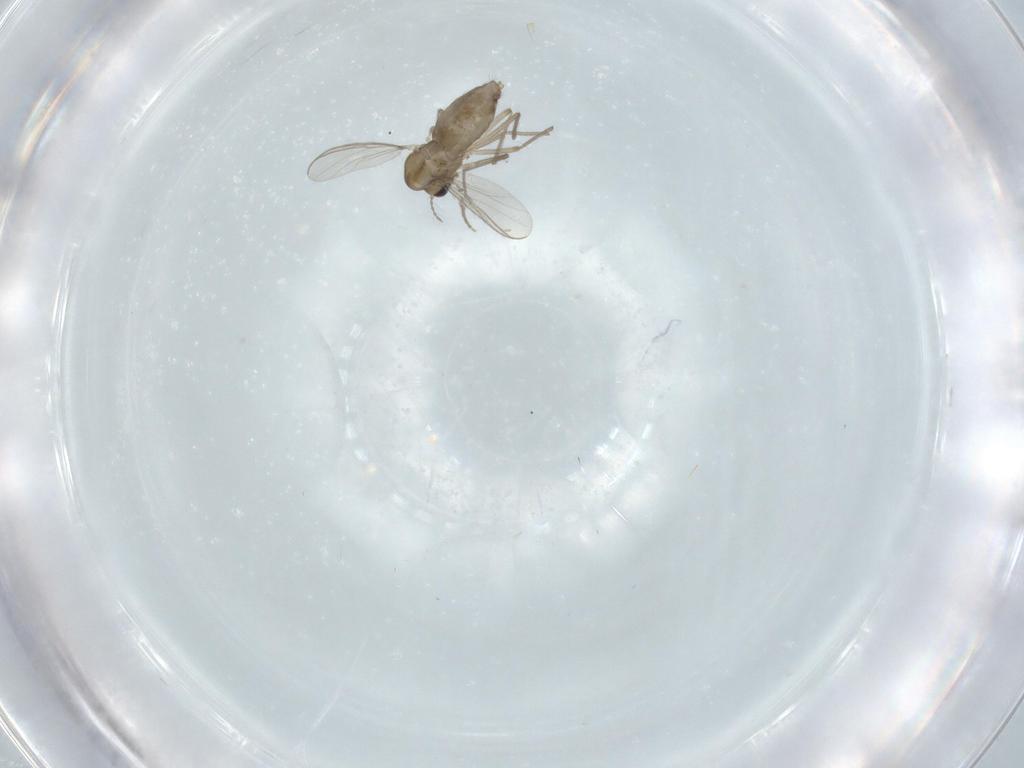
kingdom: Animalia
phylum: Arthropoda
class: Insecta
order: Diptera
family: Chironomidae
